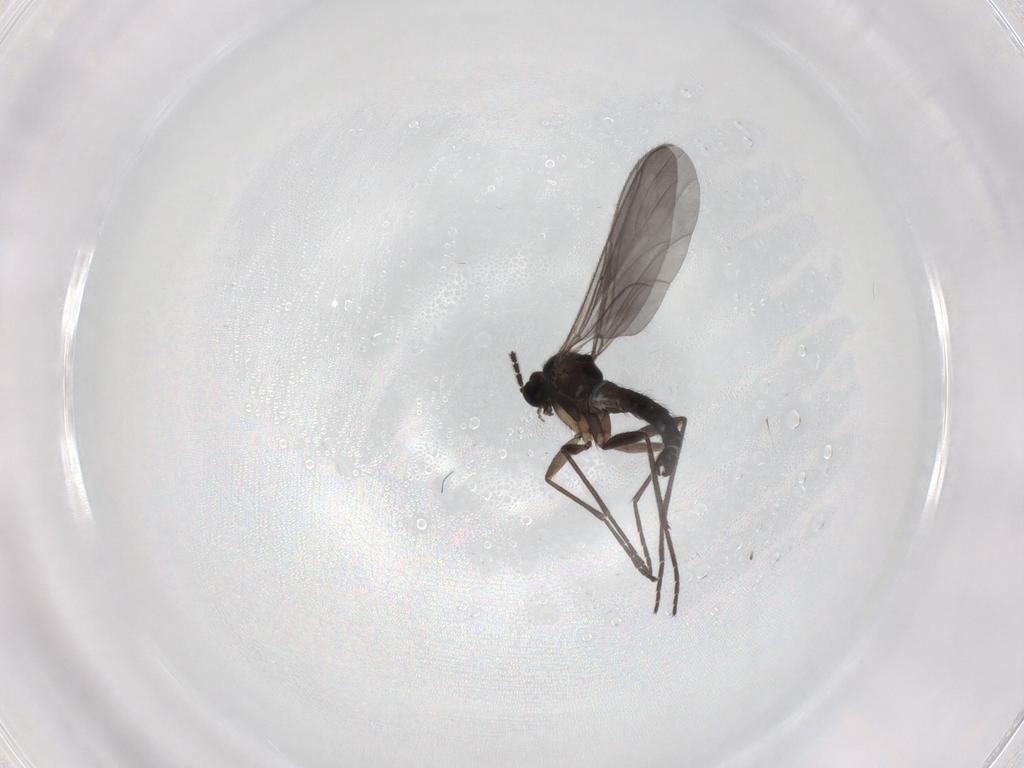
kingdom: Animalia
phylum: Arthropoda
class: Insecta
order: Diptera
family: Sciaridae
